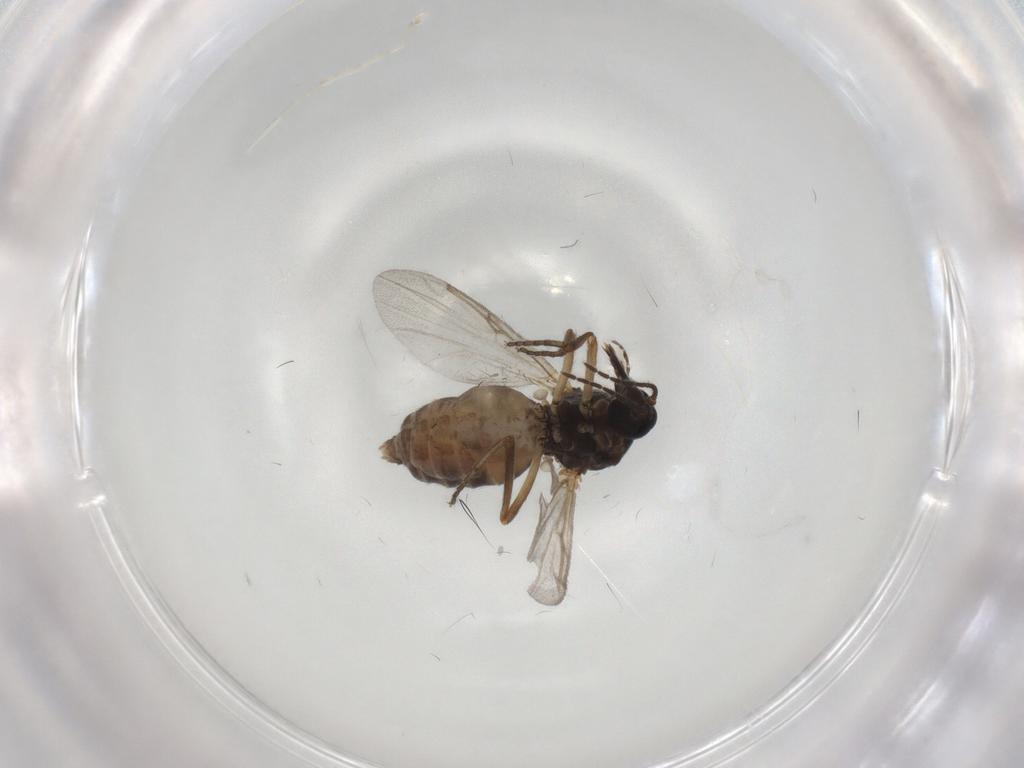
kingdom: Animalia
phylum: Arthropoda
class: Insecta
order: Diptera
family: Ceratopogonidae
